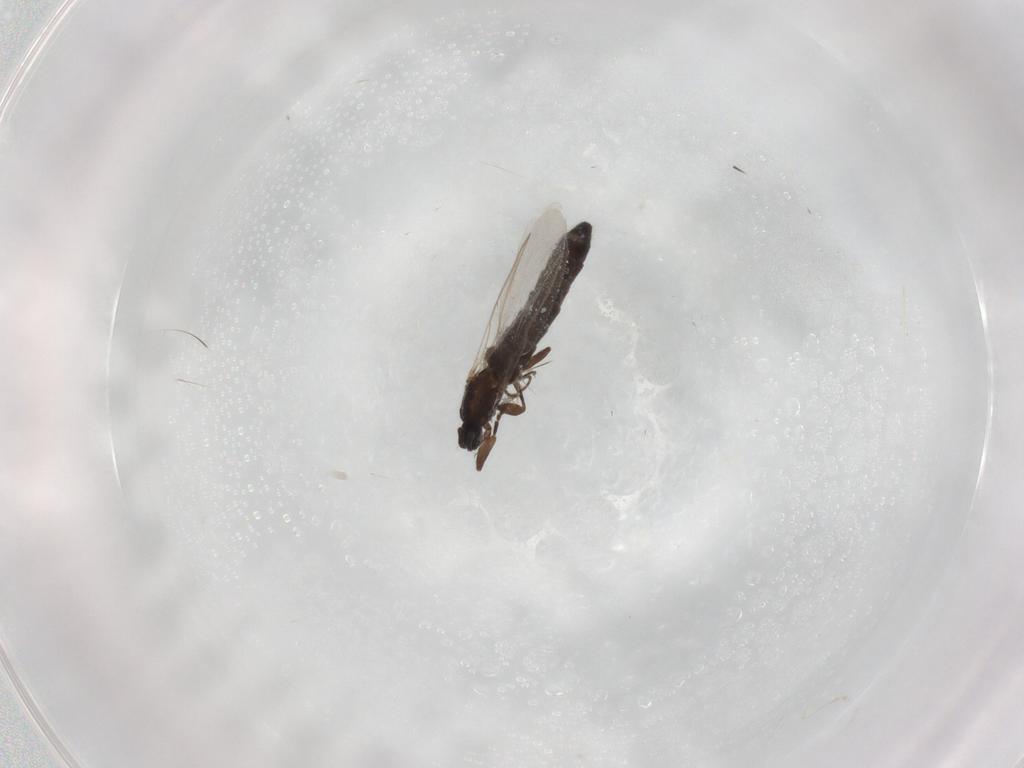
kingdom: Animalia
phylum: Arthropoda
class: Insecta
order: Diptera
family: Scatopsidae
